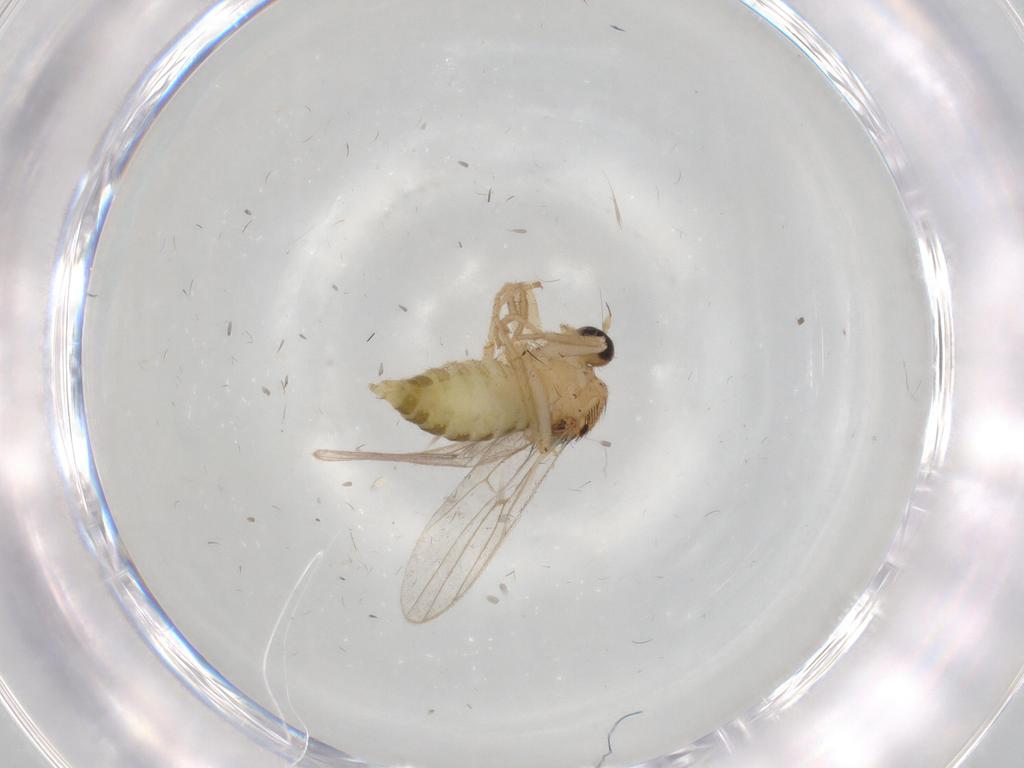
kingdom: Animalia
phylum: Arthropoda
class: Insecta
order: Diptera
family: Hybotidae
